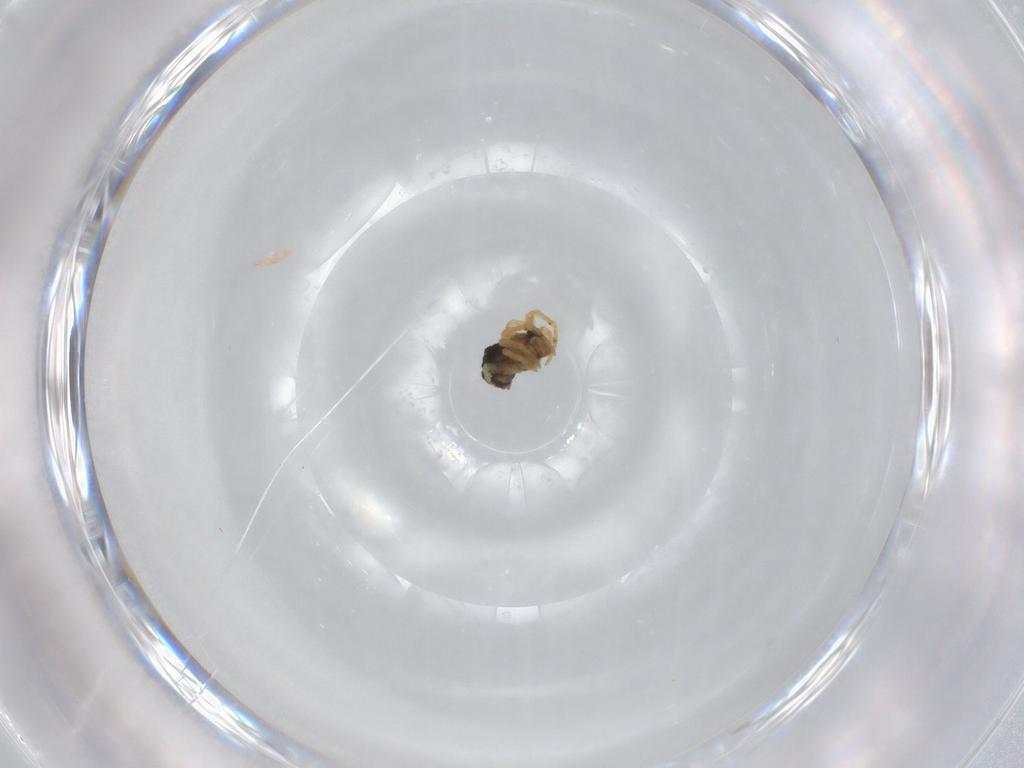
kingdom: Animalia
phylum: Arthropoda
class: Arachnida
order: Araneae
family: Theridiidae
